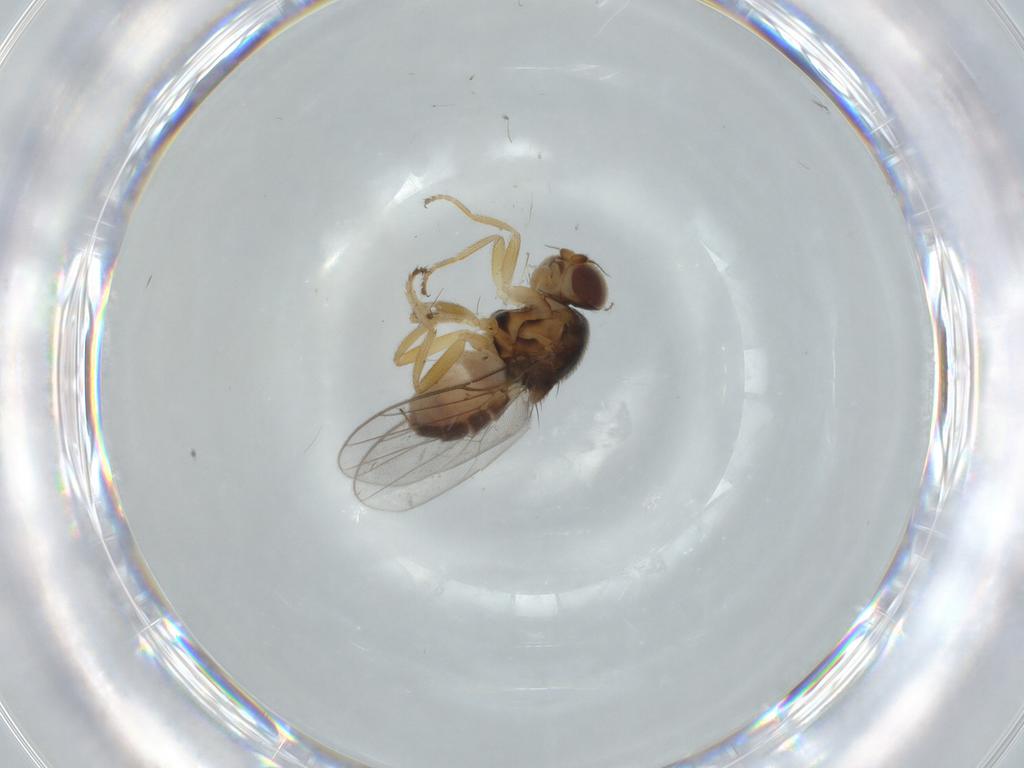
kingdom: Animalia
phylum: Arthropoda
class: Insecta
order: Diptera
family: Chloropidae
